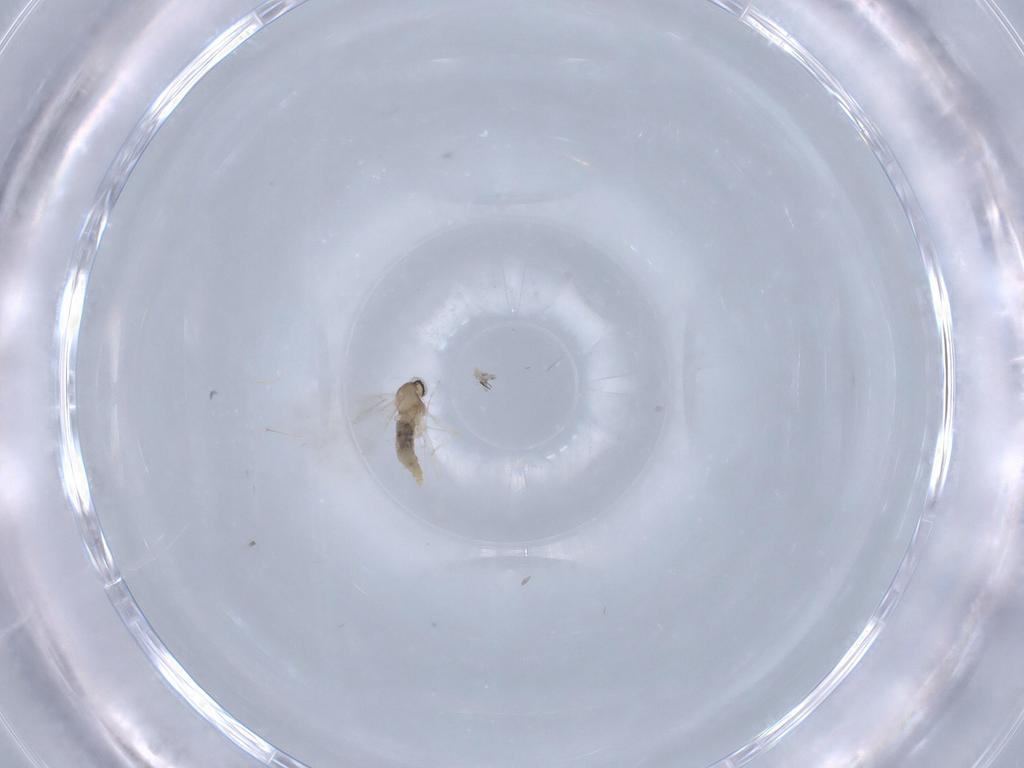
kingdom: Animalia
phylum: Arthropoda
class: Insecta
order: Diptera
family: Cecidomyiidae
